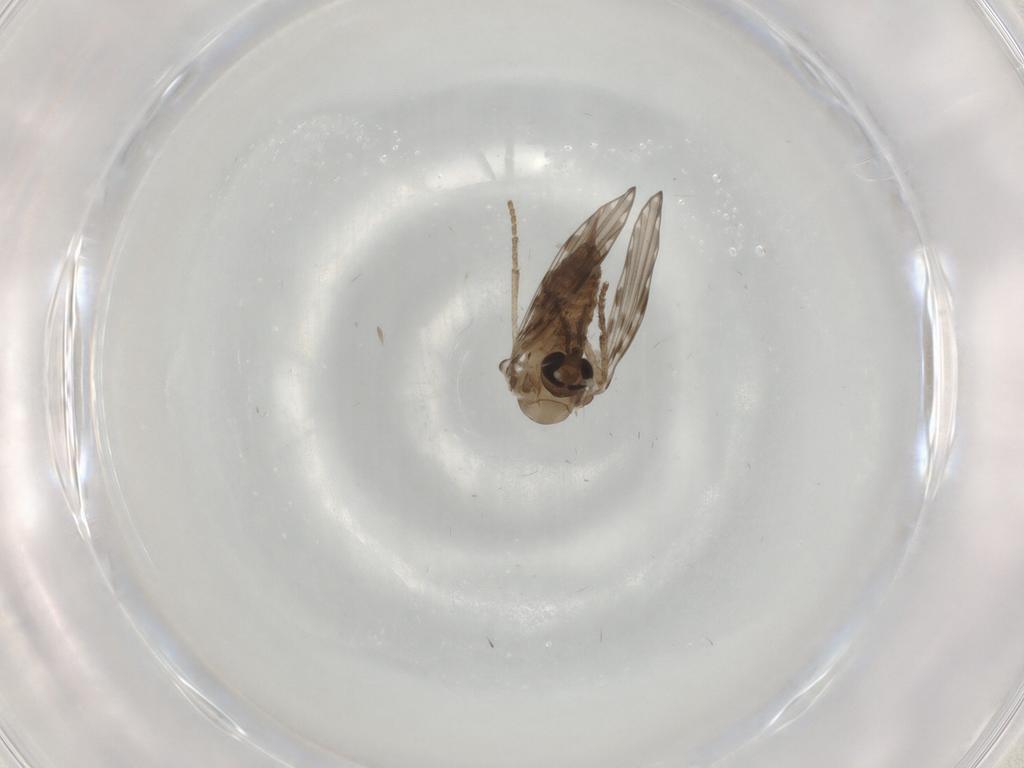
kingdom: Animalia
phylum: Arthropoda
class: Insecta
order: Diptera
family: Psychodidae
